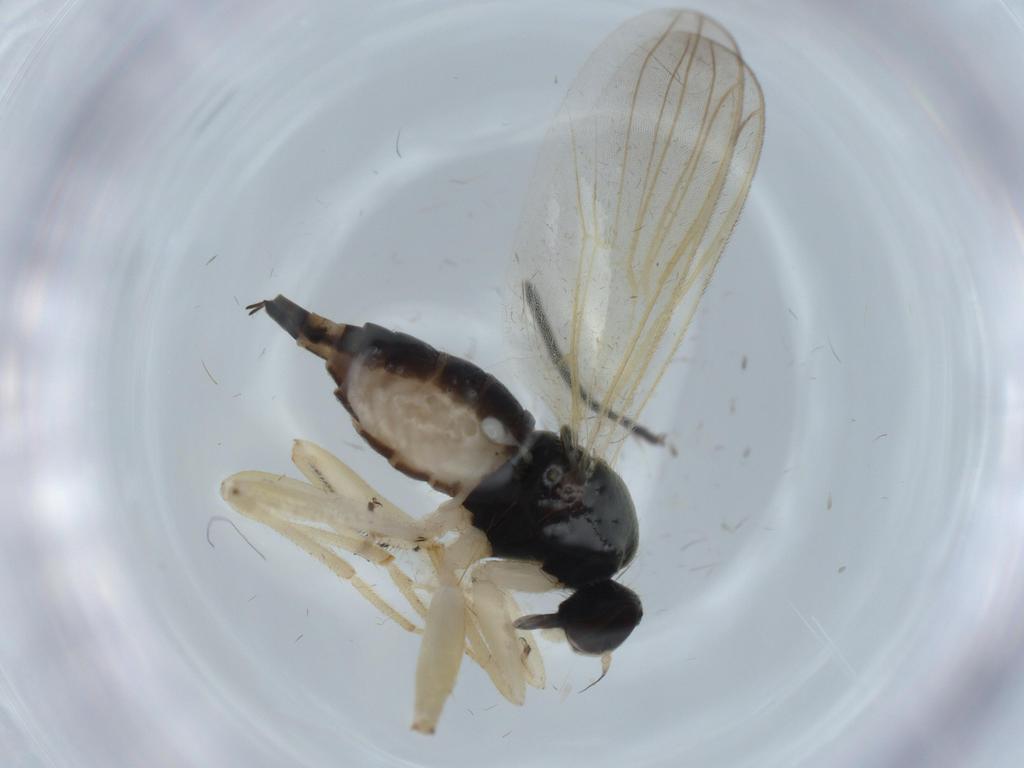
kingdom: Animalia
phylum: Arthropoda
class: Insecta
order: Diptera
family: Hybotidae
